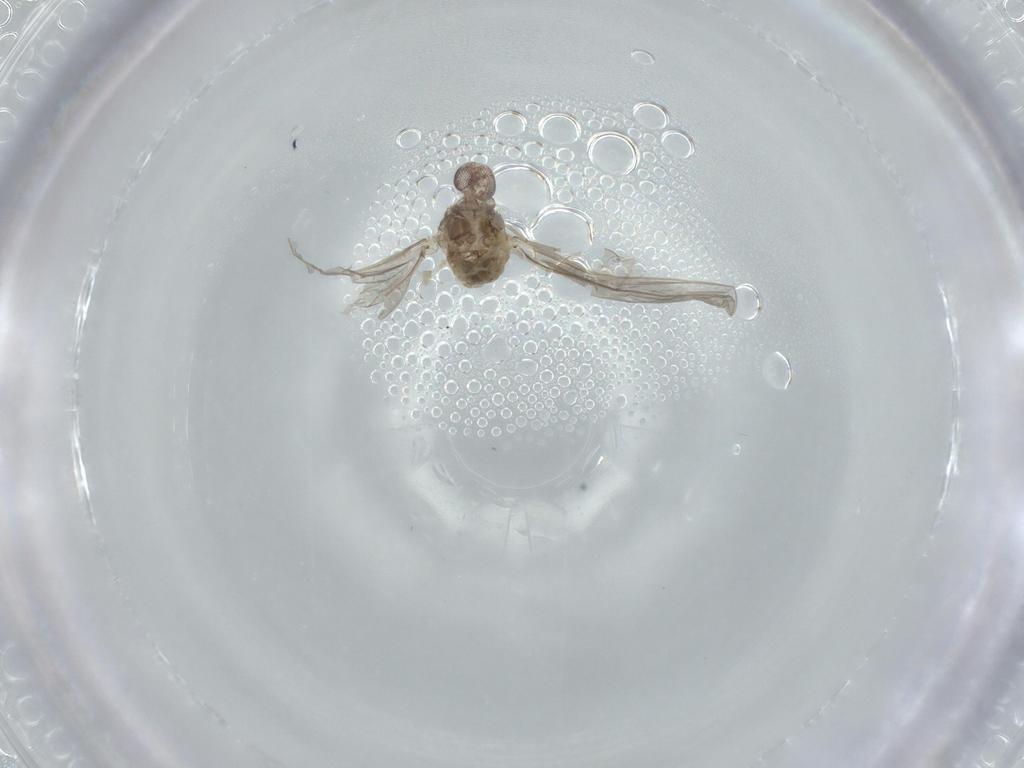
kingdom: Animalia
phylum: Arthropoda
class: Insecta
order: Diptera
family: Cecidomyiidae
